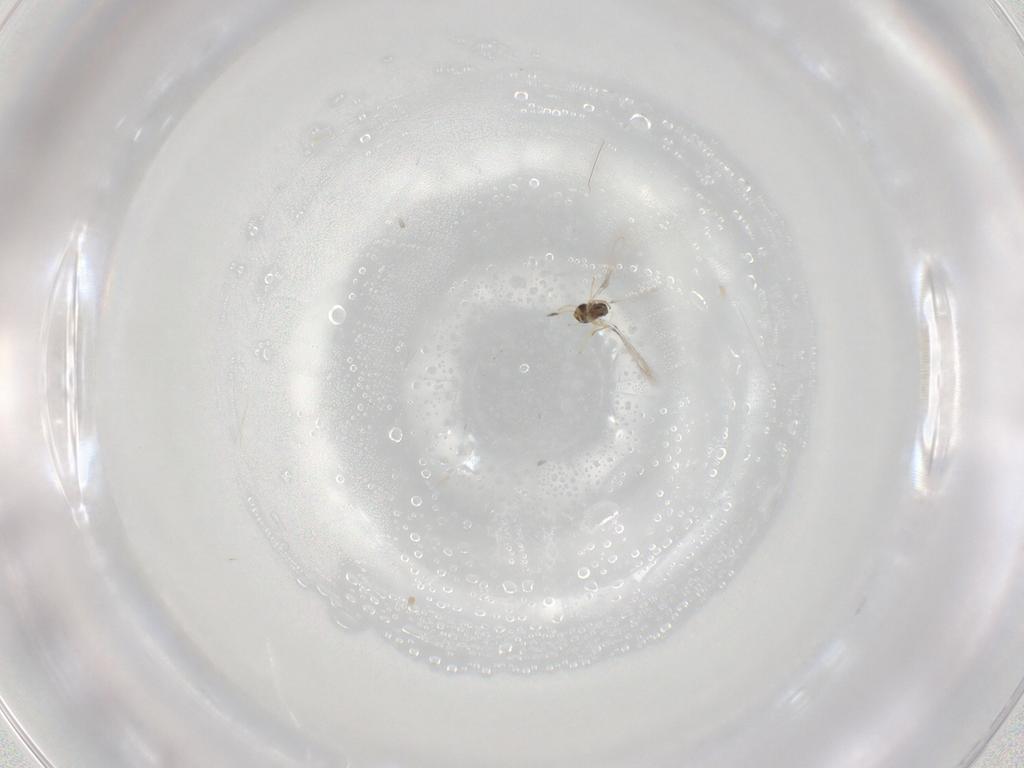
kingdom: Animalia
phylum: Arthropoda
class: Insecta
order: Hymenoptera
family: Mymaridae
